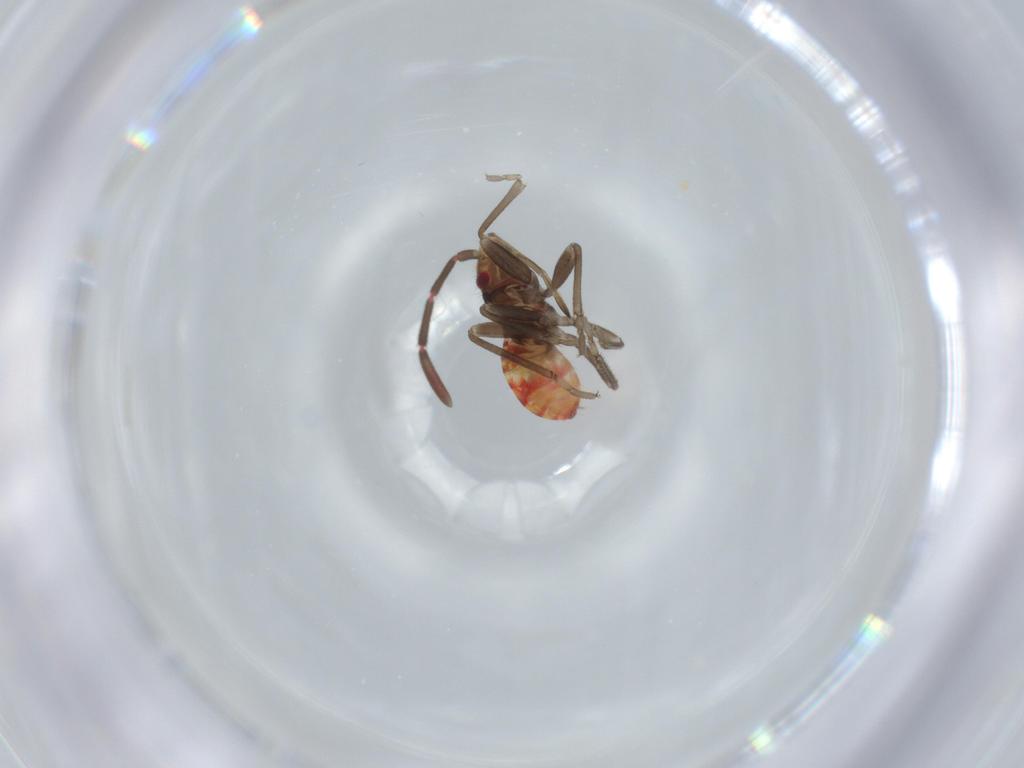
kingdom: Animalia
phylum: Arthropoda
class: Insecta
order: Hemiptera
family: Rhyparochromidae
